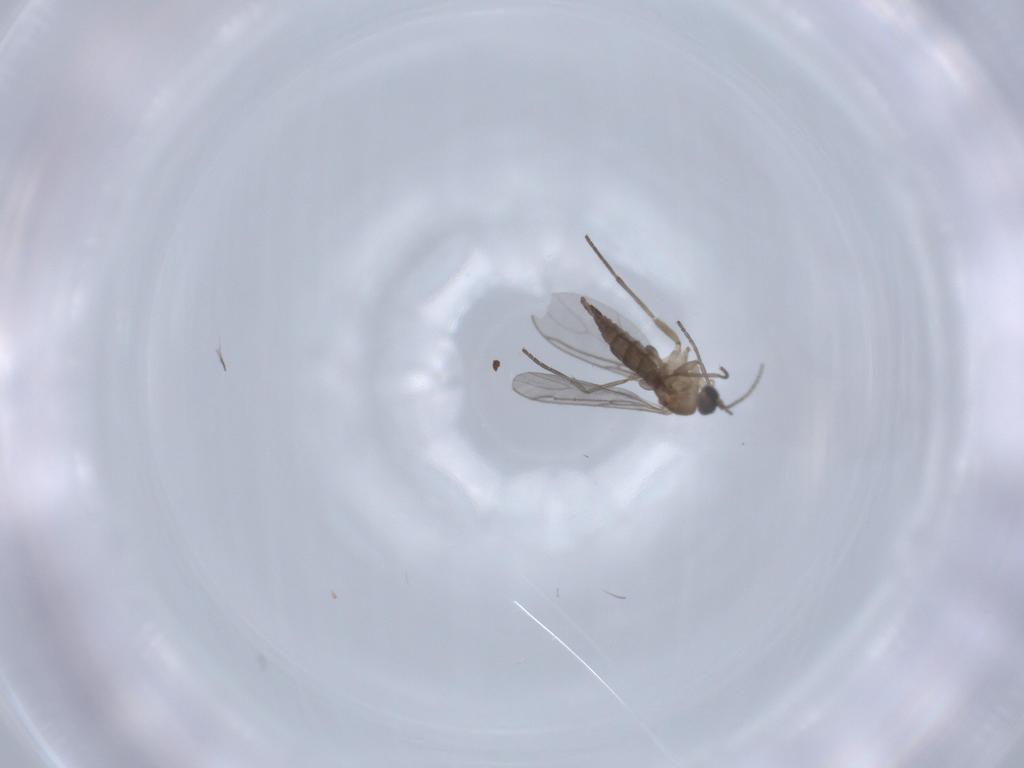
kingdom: Animalia
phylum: Arthropoda
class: Insecta
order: Diptera
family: Sciaridae
